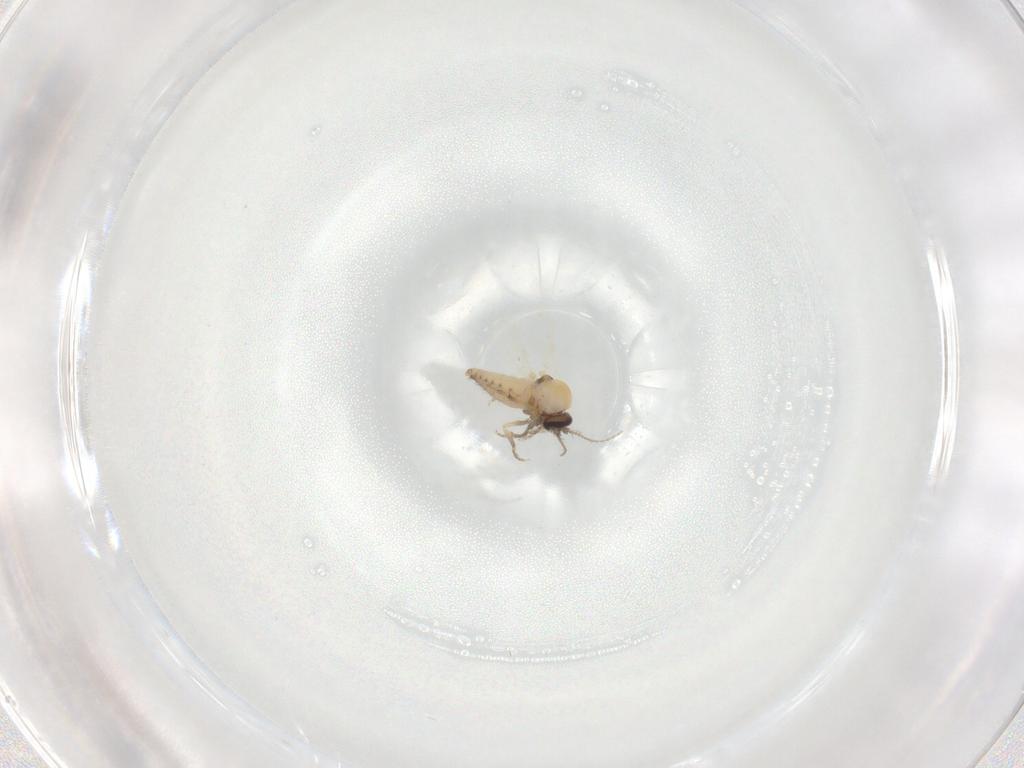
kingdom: Animalia
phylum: Arthropoda
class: Insecta
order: Diptera
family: Ceratopogonidae
